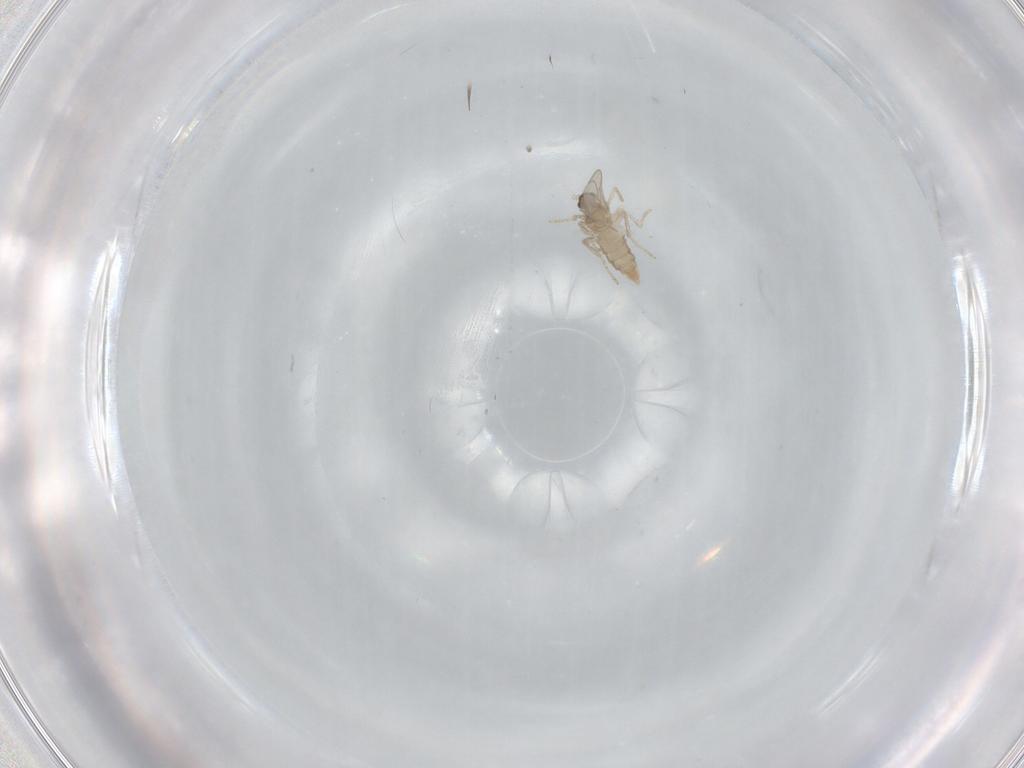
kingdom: Animalia
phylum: Arthropoda
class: Insecta
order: Diptera
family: Cecidomyiidae
